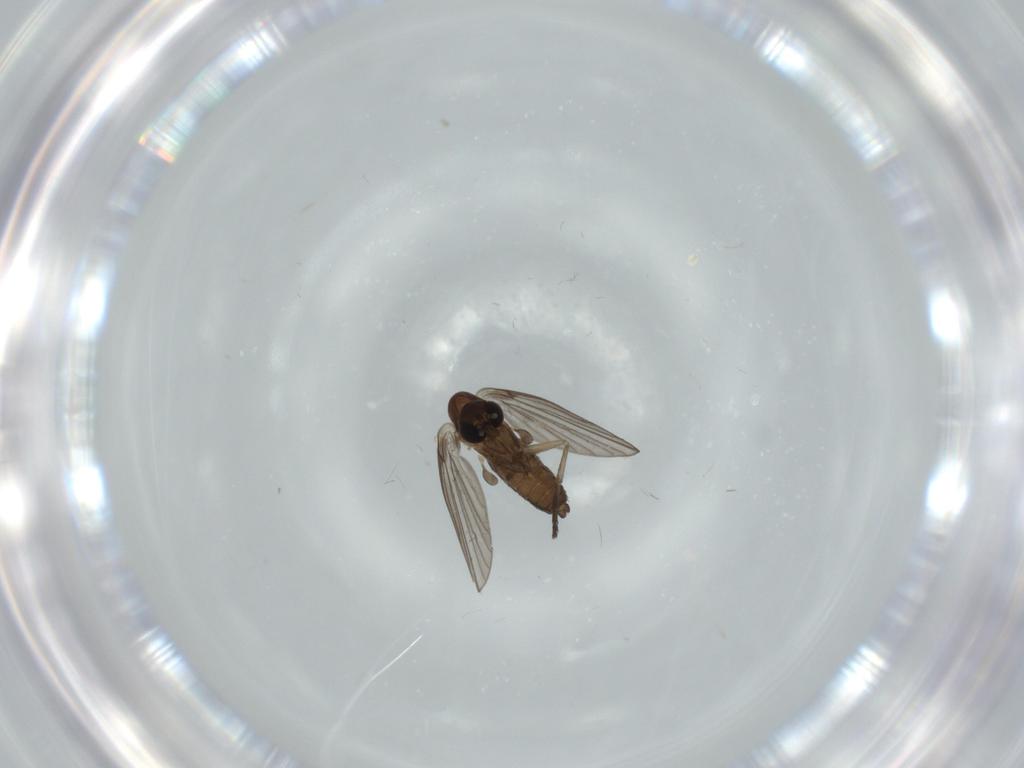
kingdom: Animalia
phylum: Arthropoda
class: Insecta
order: Diptera
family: Psychodidae
